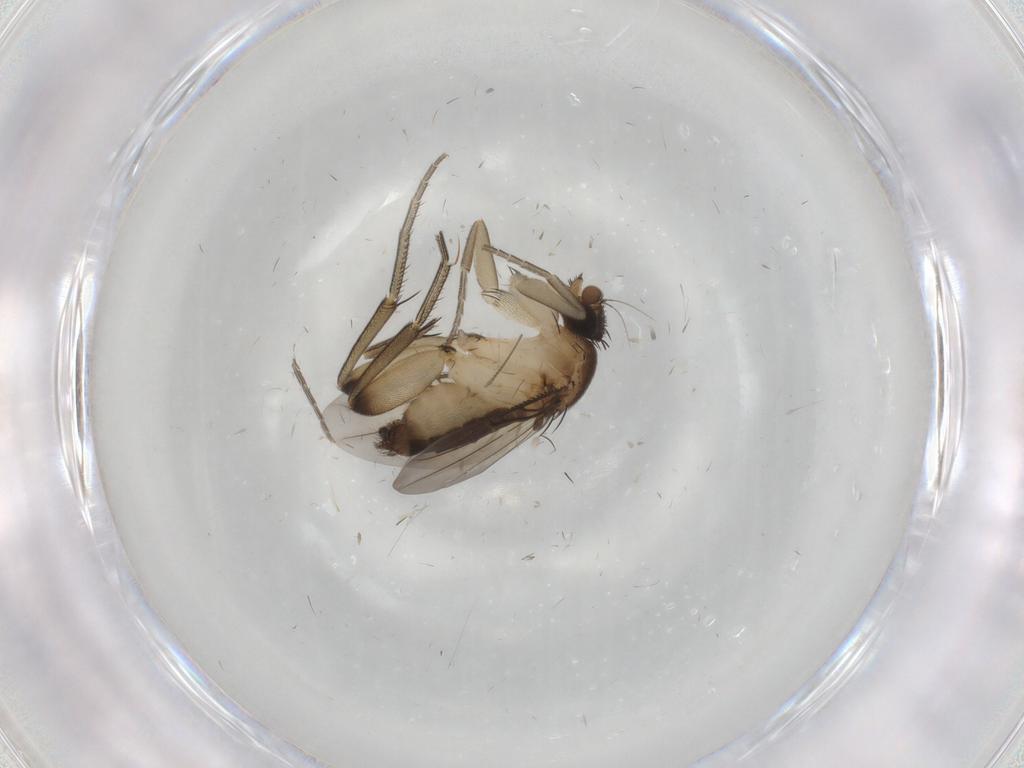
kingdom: Animalia
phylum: Arthropoda
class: Insecta
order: Diptera
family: Phoridae
